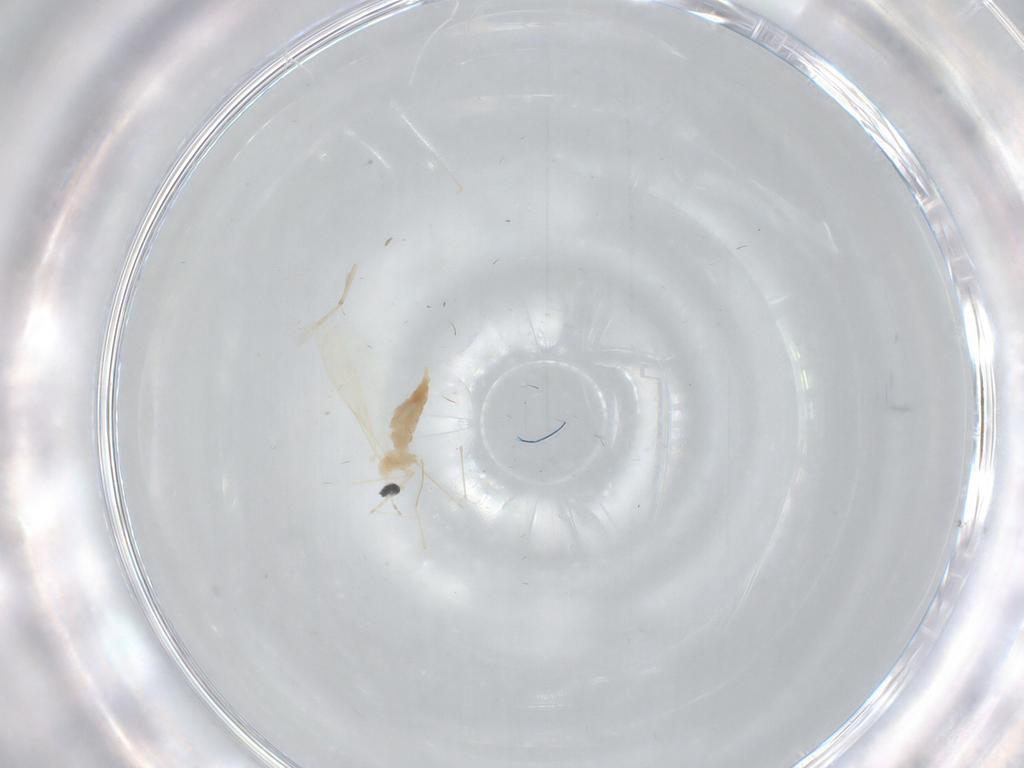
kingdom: Animalia
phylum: Arthropoda
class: Insecta
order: Diptera
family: Cecidomyiidae
